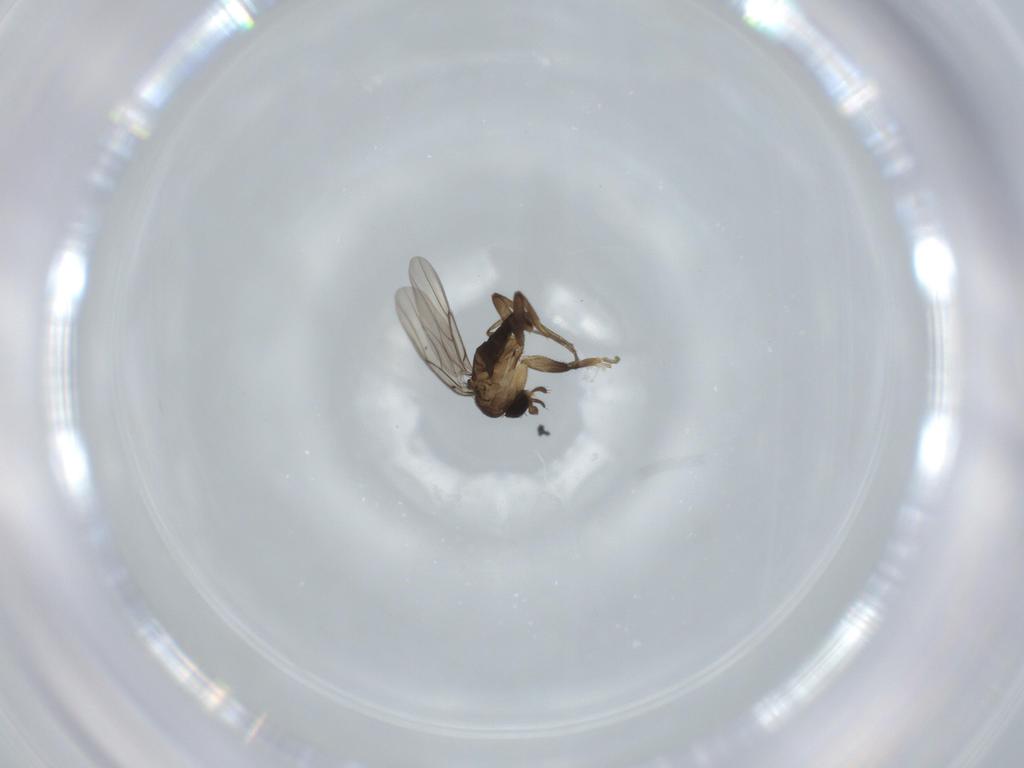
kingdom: Animalia
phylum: Arthropoda
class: Insecta
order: Diptera
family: Phoridae
